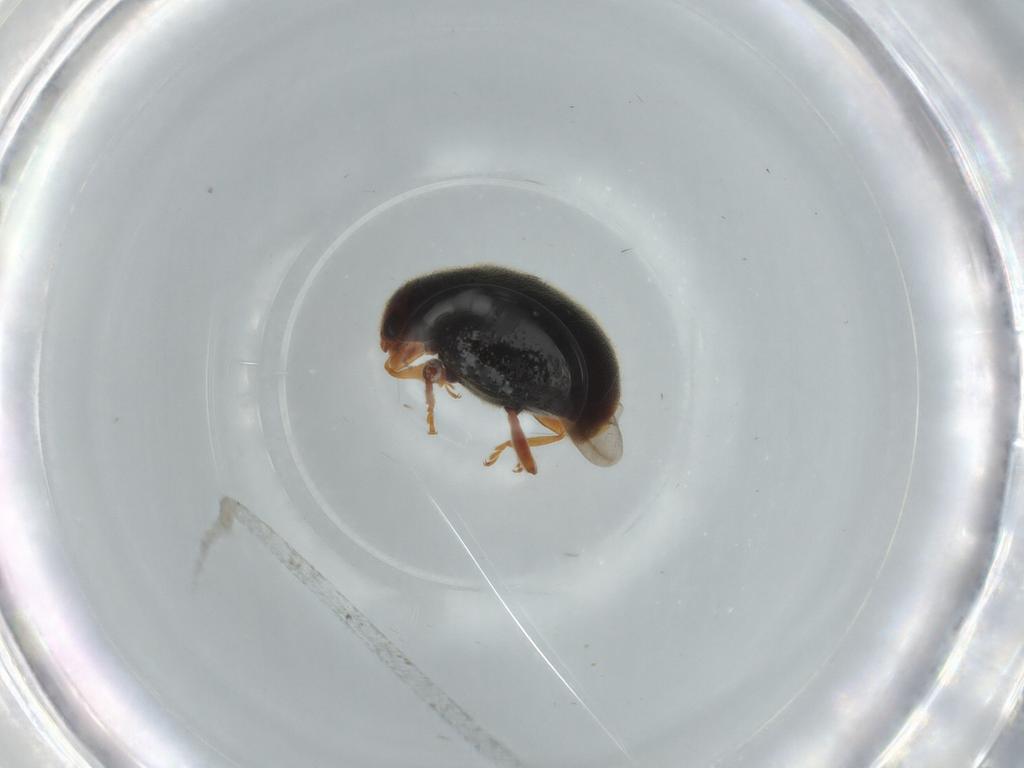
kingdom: Animalia
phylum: Arthropoda
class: Insecta
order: Coleoptera
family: Coccinellidae
